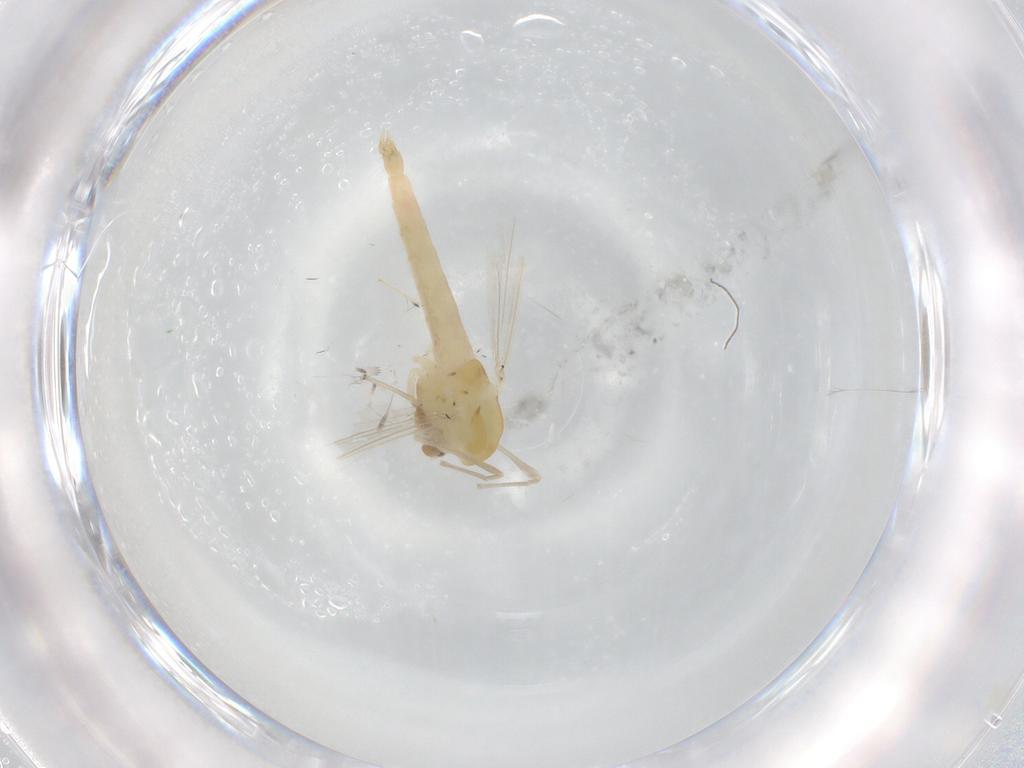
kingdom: Animalia
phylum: Arthropoda
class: Insecta
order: Diptera
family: Chironomidae
